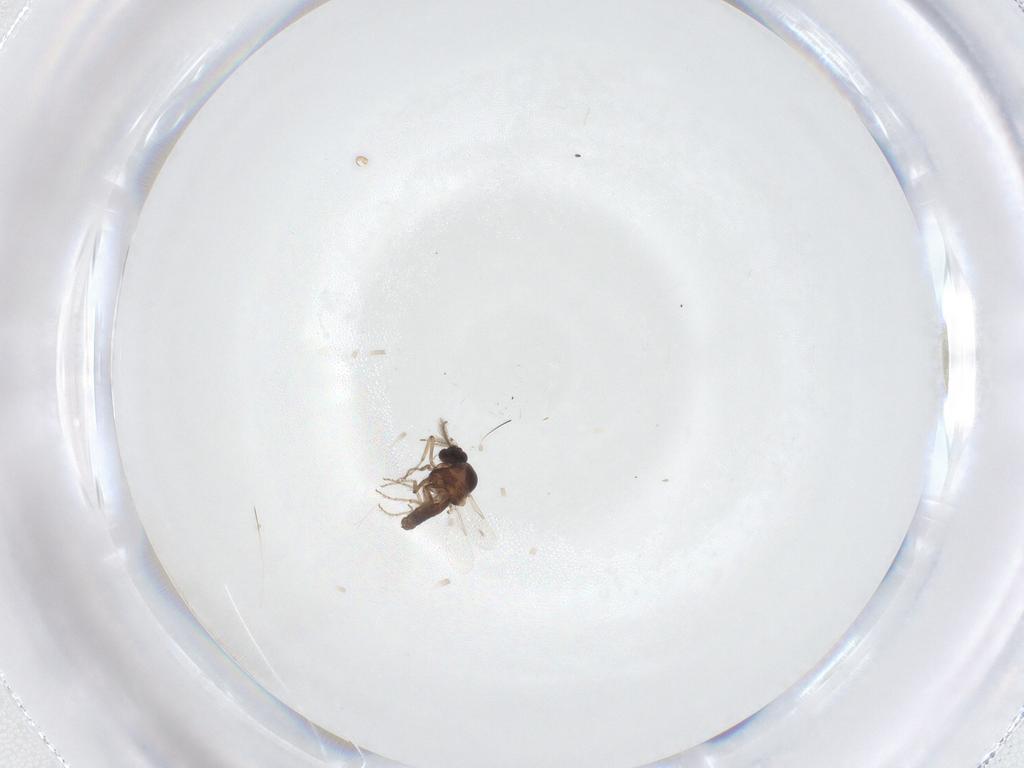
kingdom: Animalia
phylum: Arthropoda
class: Insecta
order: Diptera
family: Ceratopogonidae
